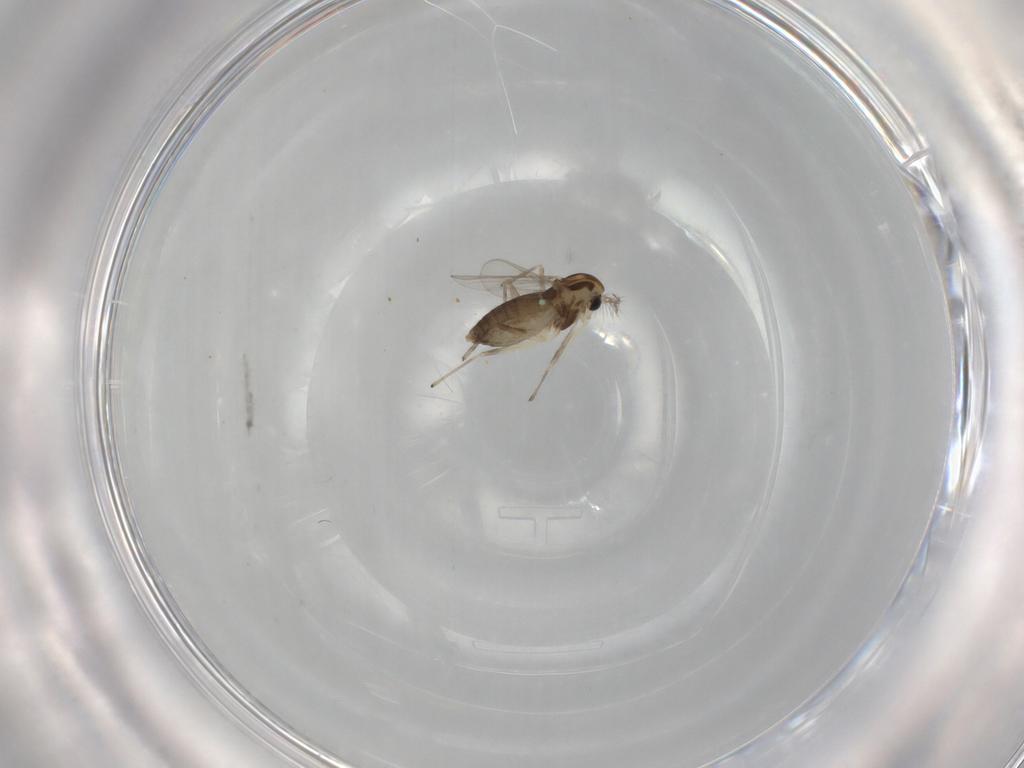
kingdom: Animalia
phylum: Arthropoda
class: Insecta
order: Diptera
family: Chironomidae
